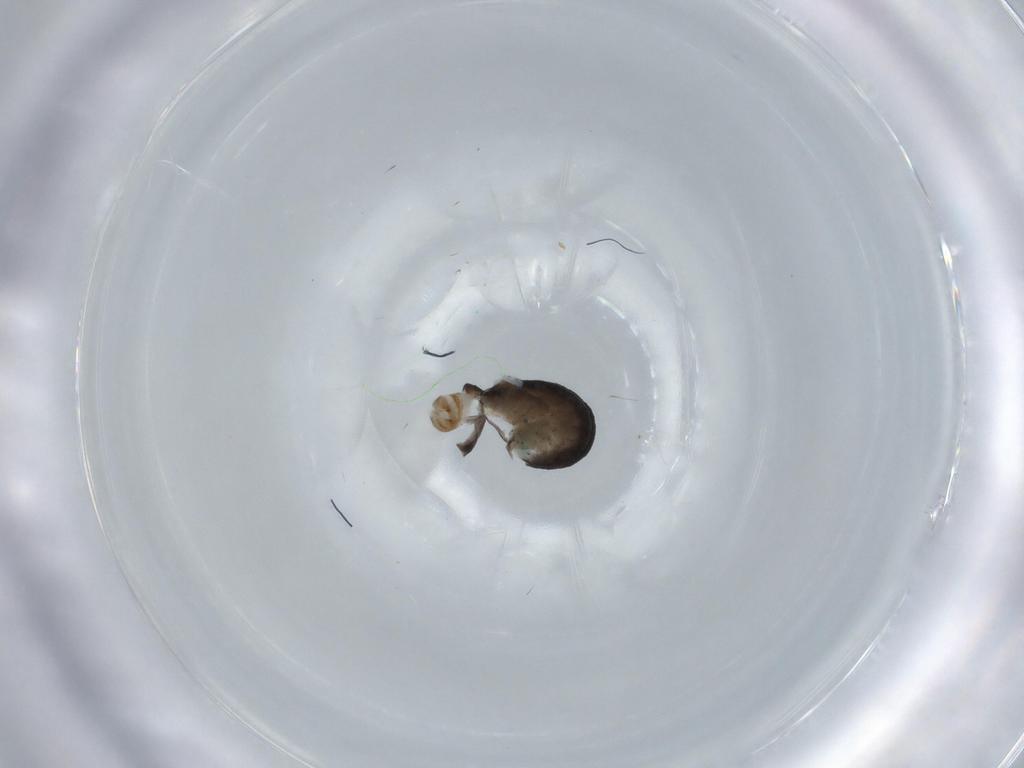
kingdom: Animalia
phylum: Arthropoda
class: Insecta
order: Hymenoptera
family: Dryinidae
